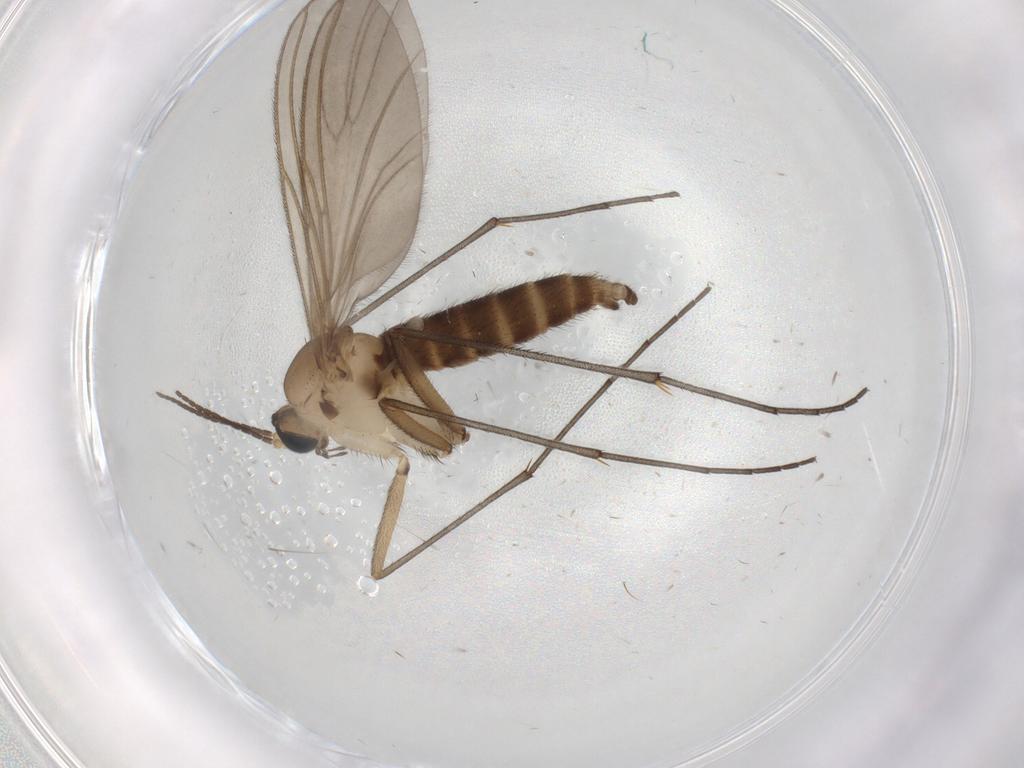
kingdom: Animalia
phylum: Arthropoda
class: Insecta
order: Diptera
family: Sciaridae
